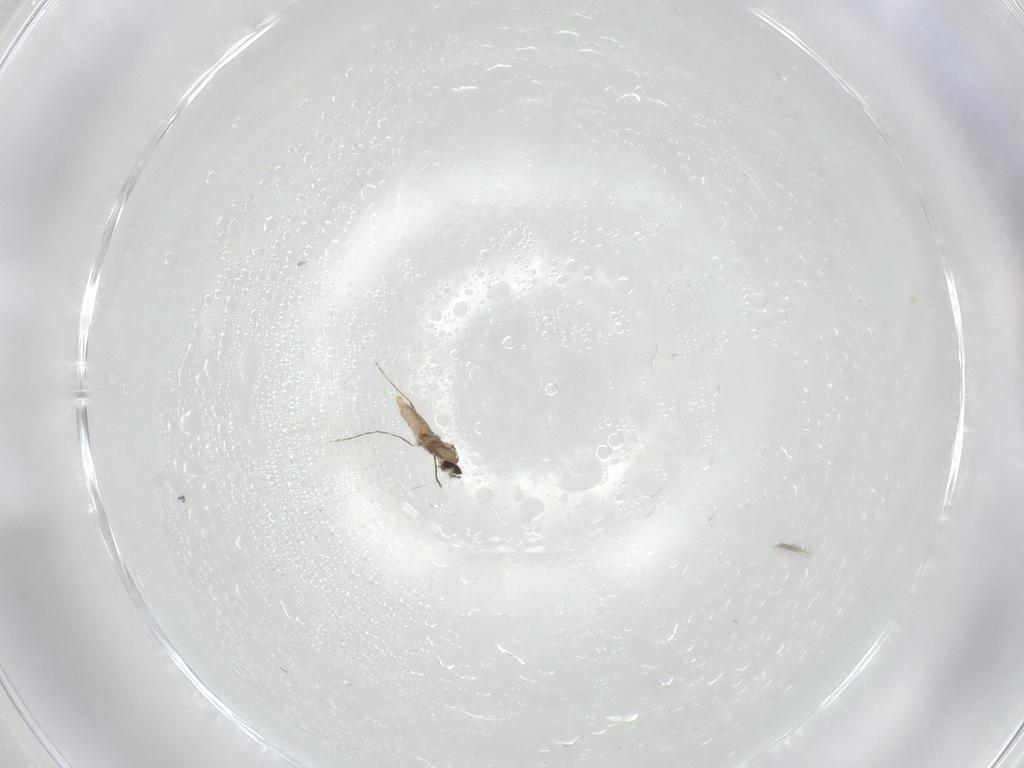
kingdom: Animalia
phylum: Arthropoda
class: Insecta
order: Diptera
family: Cecidomyiidae
